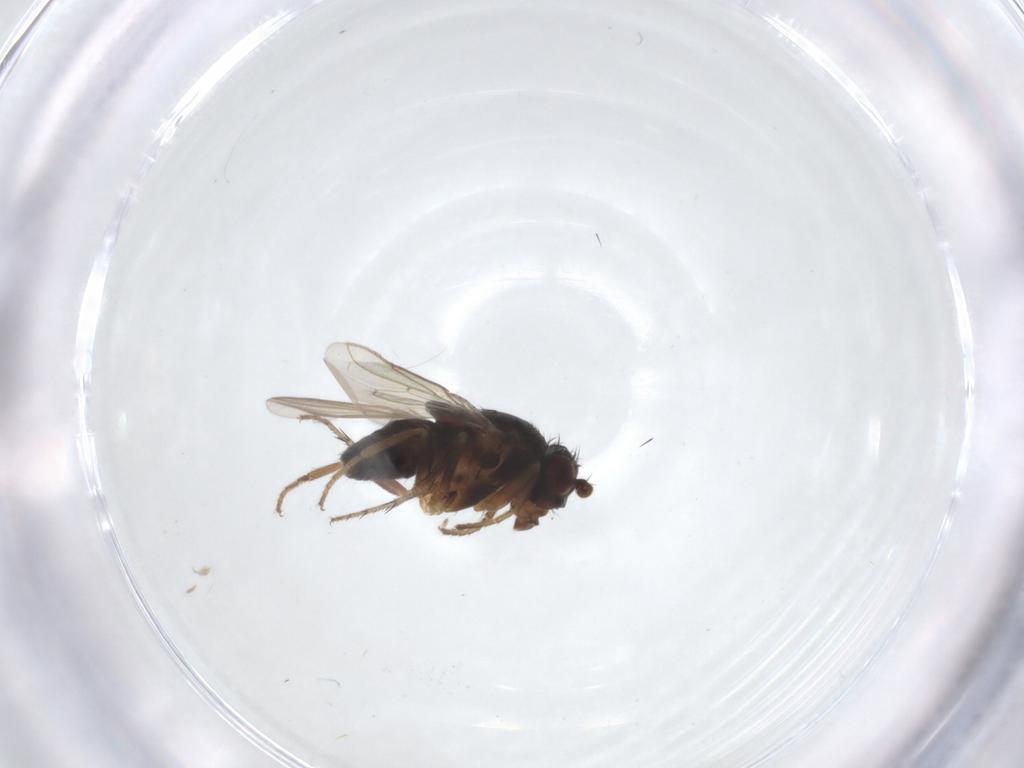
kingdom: Animalia
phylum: Arthropoda
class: Insecta
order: Diptera
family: Sphaeroceridae
